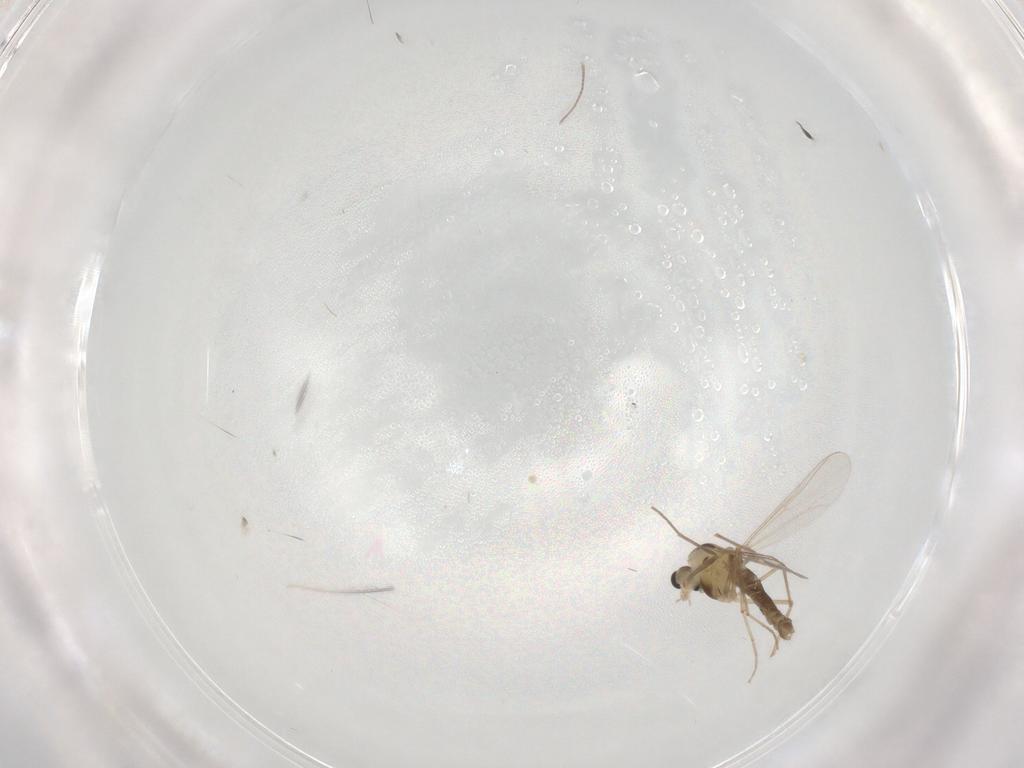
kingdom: Animalia
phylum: Arthropoda
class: Insecta
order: Diptera
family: Chironomidae
